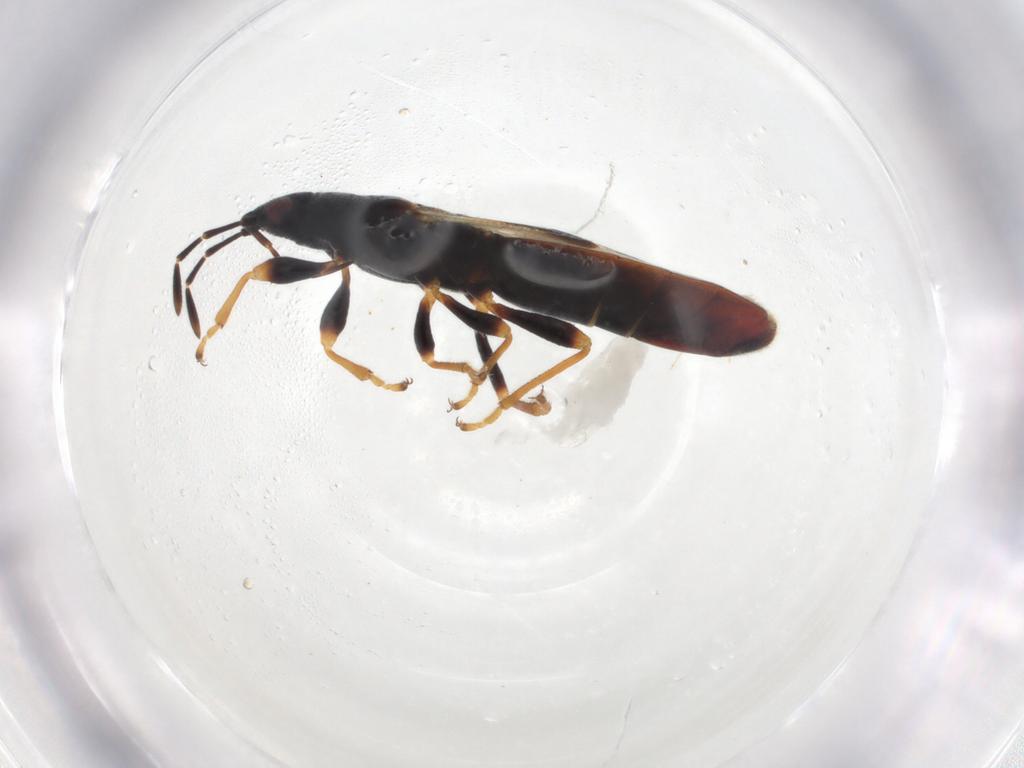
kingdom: Animalia
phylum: Arthropoda
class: Insecta
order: Hemiptera
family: Blissidae
